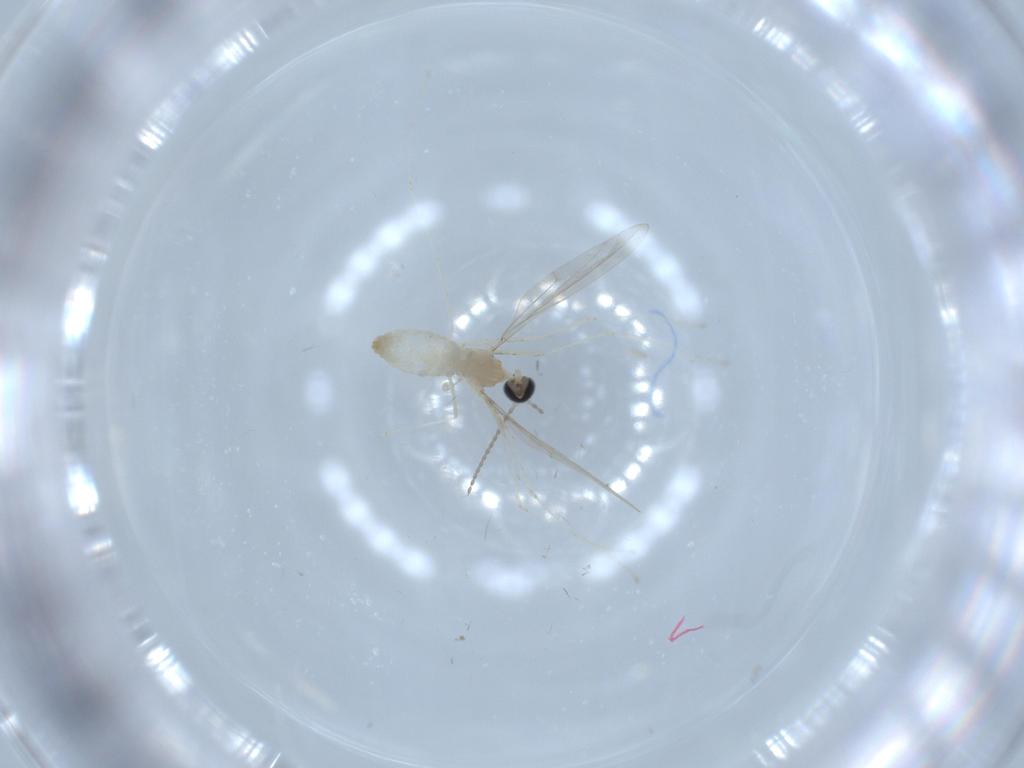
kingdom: Animalia
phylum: Arthropoda
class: Insecta
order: Diptera
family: Cecidomyiidae
